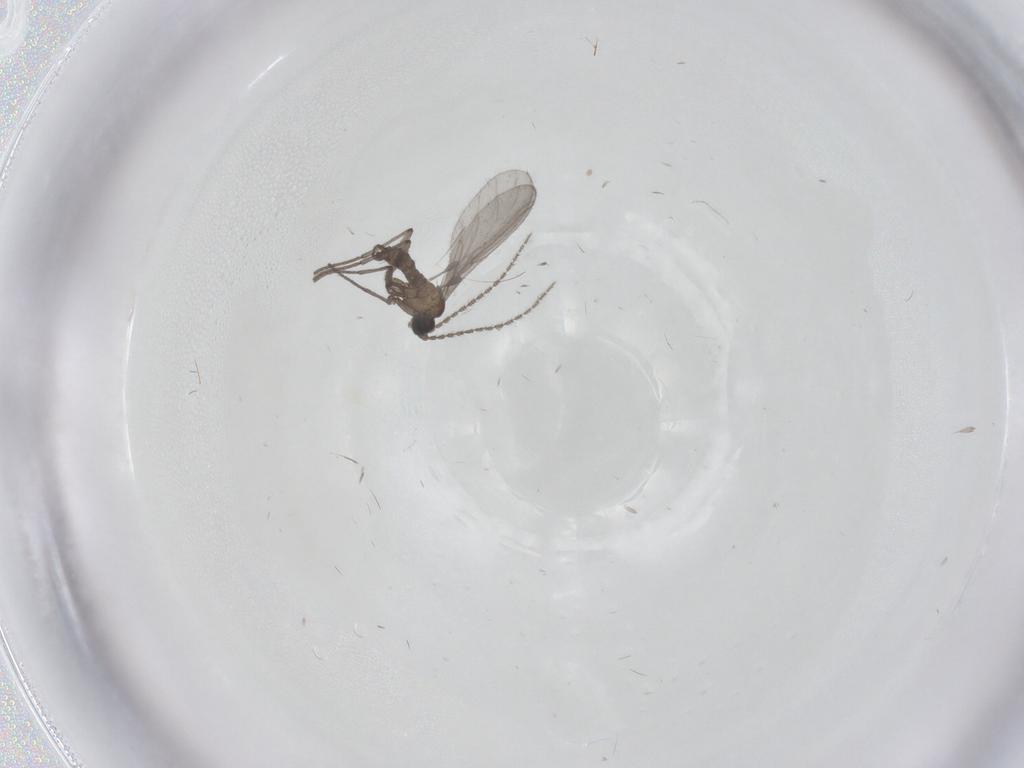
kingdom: Animalia
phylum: Arthropoda
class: Insecta
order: Diptera
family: Sciaridae
